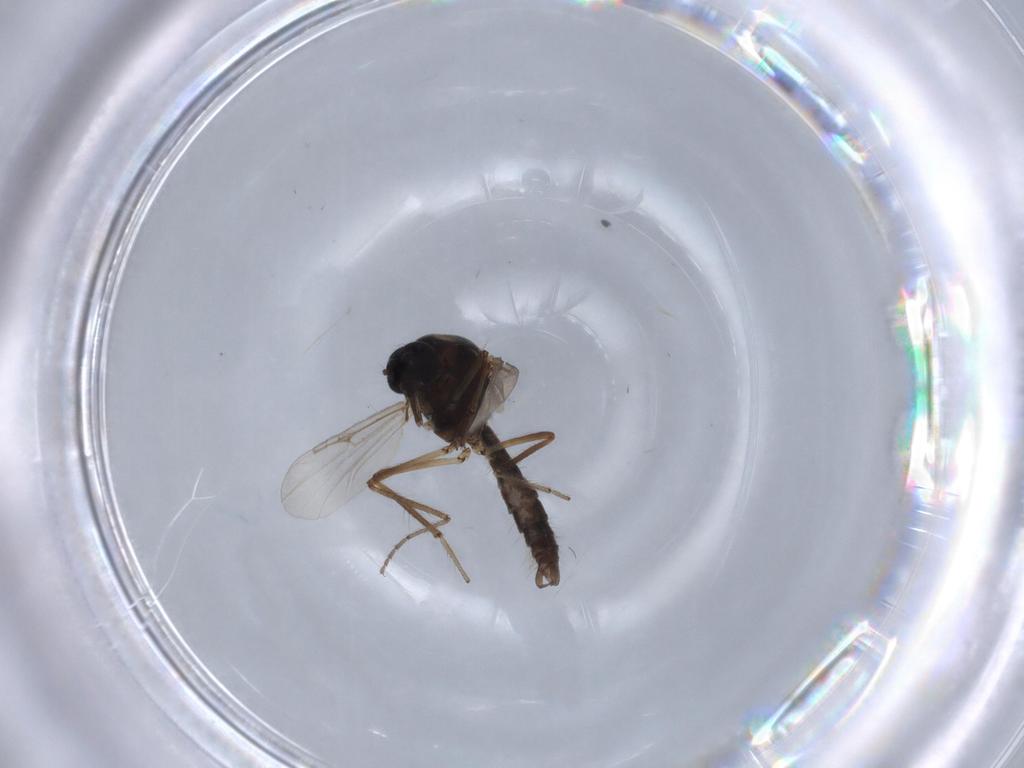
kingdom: Animalia
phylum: Arthropoda
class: Insecta
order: Diptera
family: Ceratopogonidae
